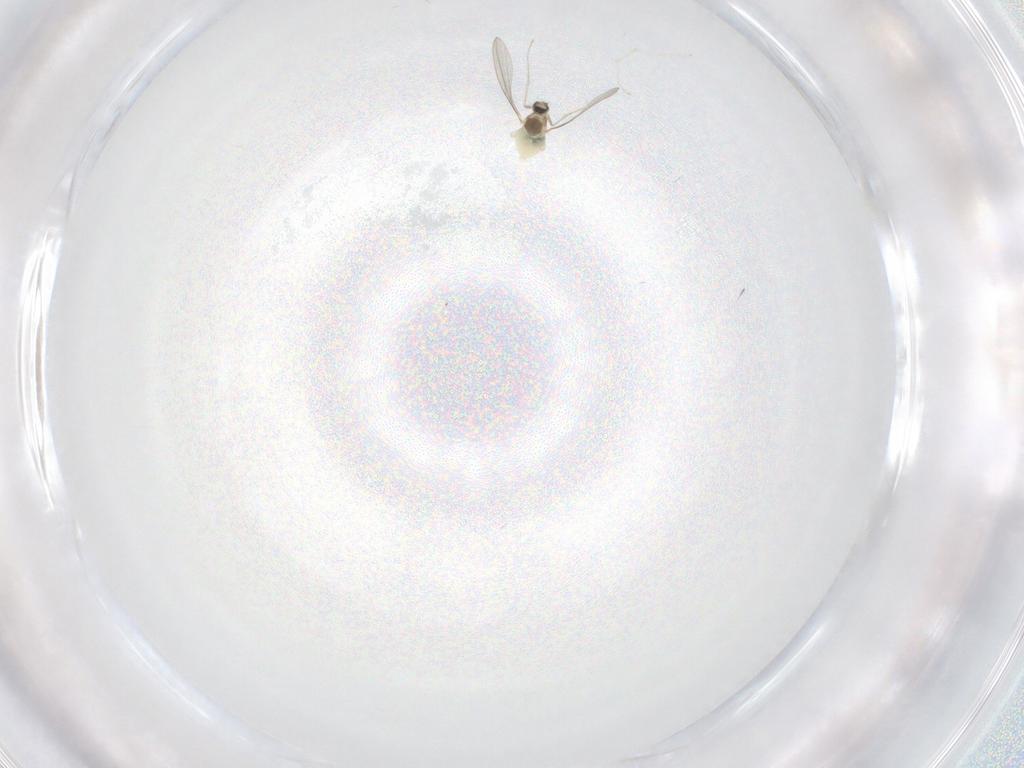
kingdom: Animalia
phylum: Arthropoda
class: Insecta
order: Diptera
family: Cecidomyiidae
